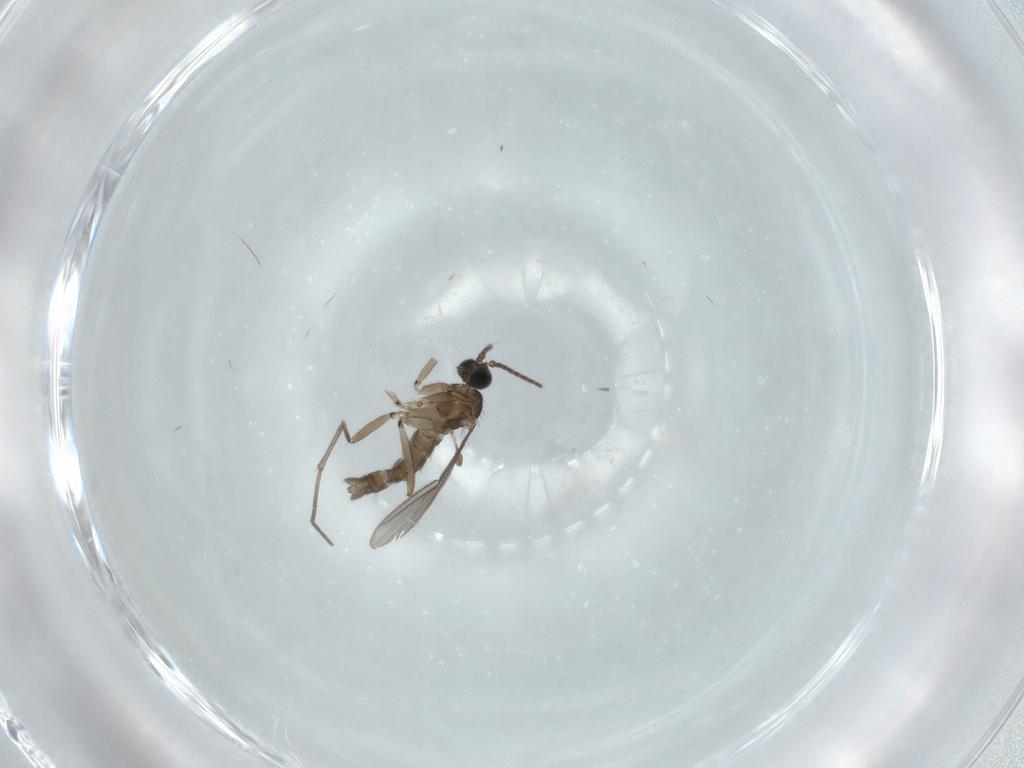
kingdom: Animalia
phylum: Arthropoda
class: Insecta
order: Diptera
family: Sciaridae
